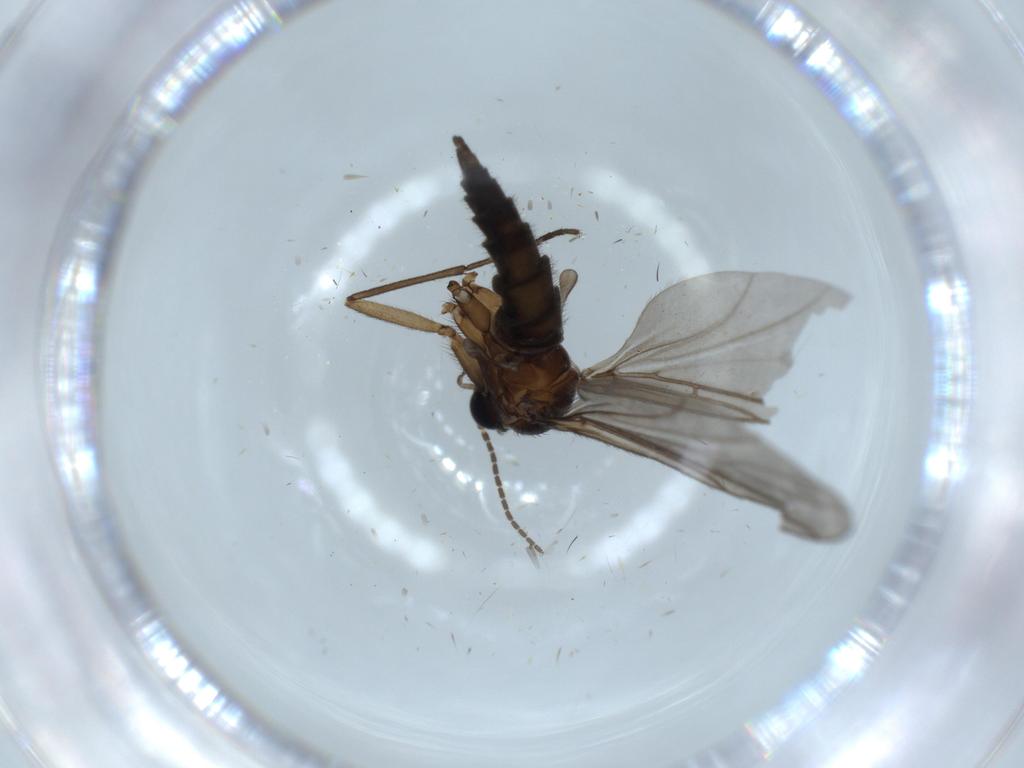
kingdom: Animalia
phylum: Arthropoda
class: Insecta
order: Diptera
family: Sciaridae
